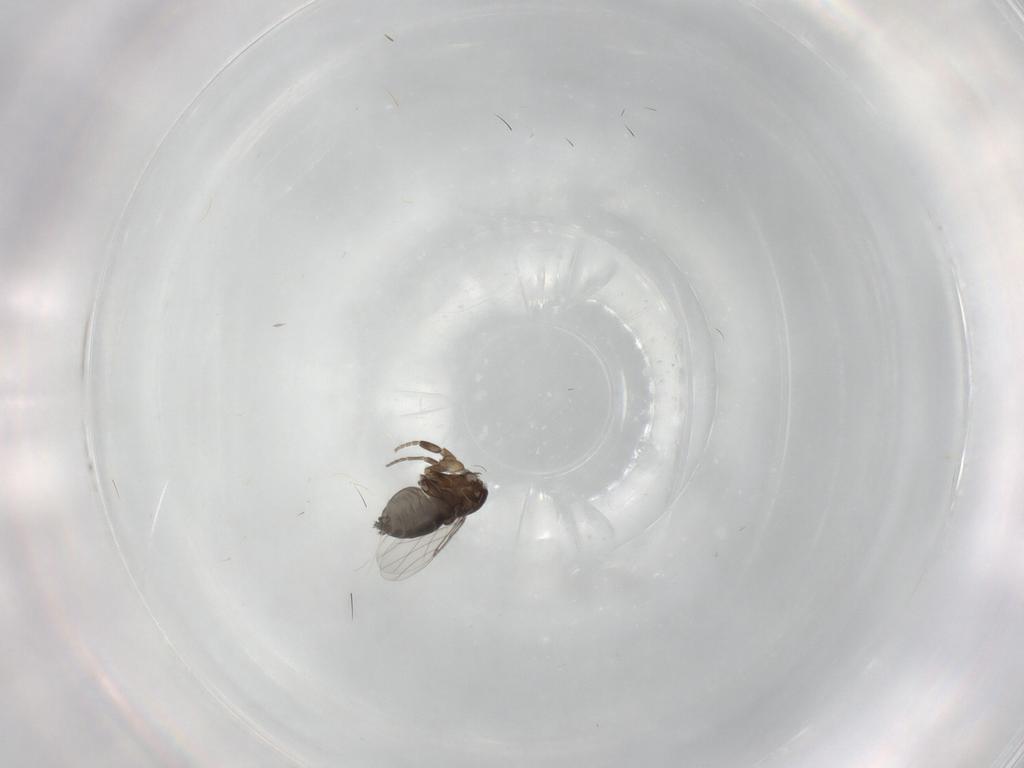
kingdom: Animalia
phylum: Arthropoda
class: Insecta
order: Diptera
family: Phoridae
